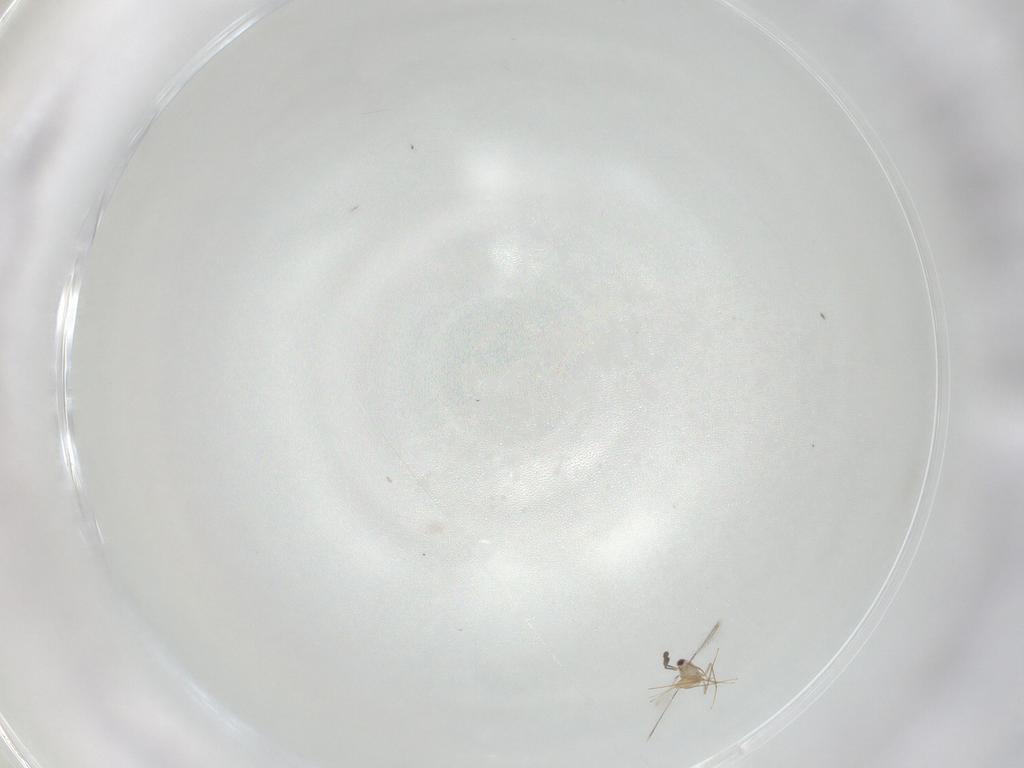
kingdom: Animalia
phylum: Arthropoda
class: Insecta
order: Hymenoptera
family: Mymaridae
